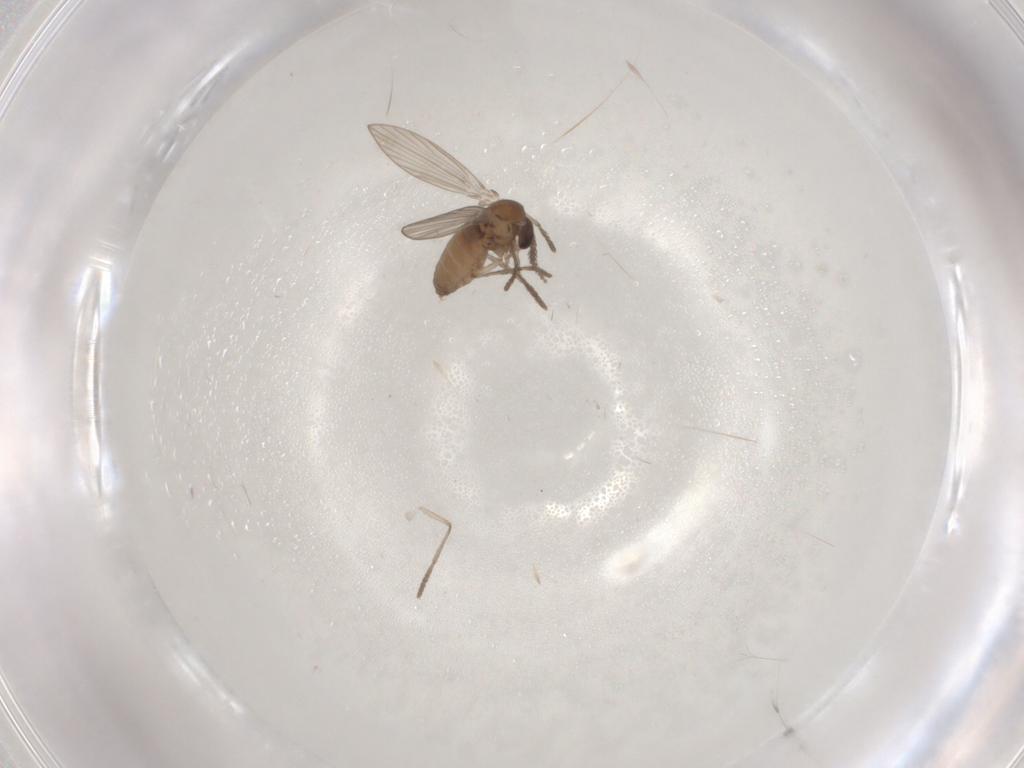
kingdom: Animalia
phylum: Arthropoda
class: Insecta
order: Diptera
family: Psychodidae
